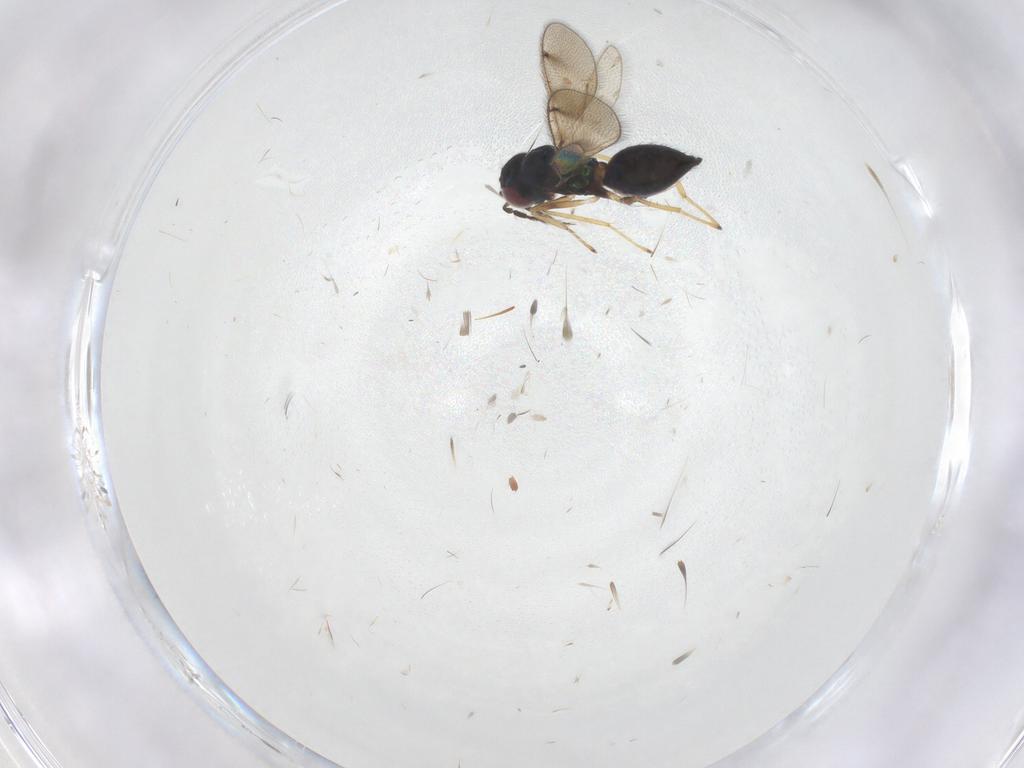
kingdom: Animalia
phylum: Arthropoda
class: Insecta
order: Hymenoptera
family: Eulophidae
